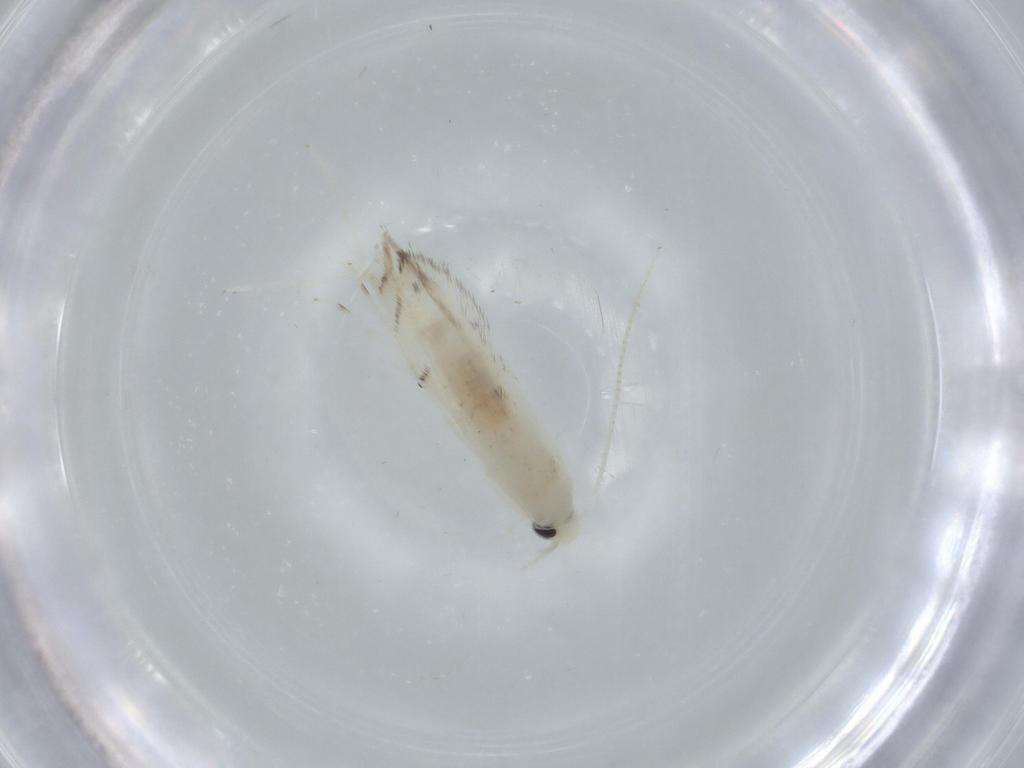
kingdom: Animalia
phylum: Arthropoda
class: Insecta
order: Lepidoptera
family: Gracillariidae
